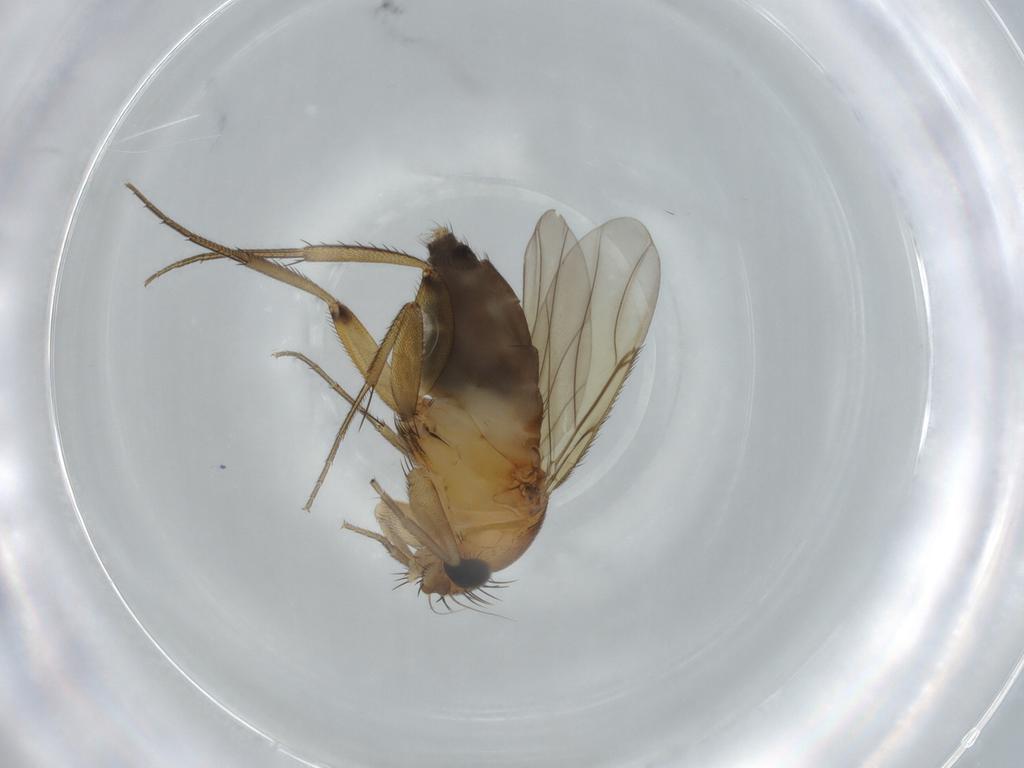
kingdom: Animalia
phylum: Arthropoda
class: Insecta
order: Diptera
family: Phoridae
